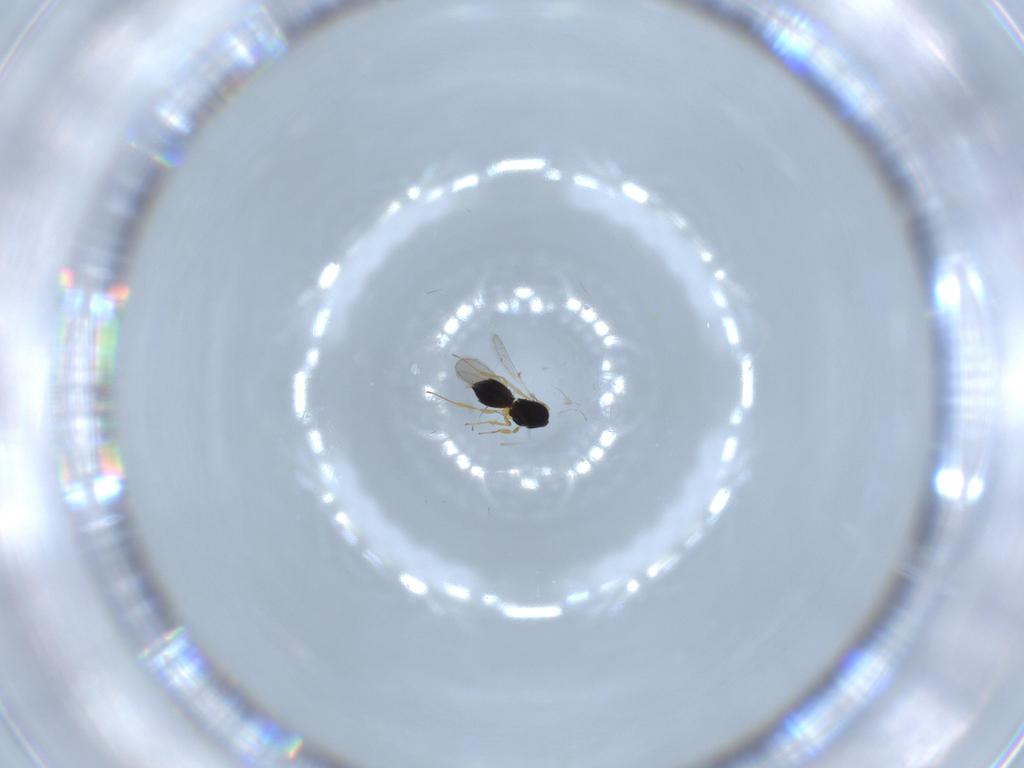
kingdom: Animalia
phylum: Arthropoda
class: Insecta
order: Hymenoptera
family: Scelionidae
